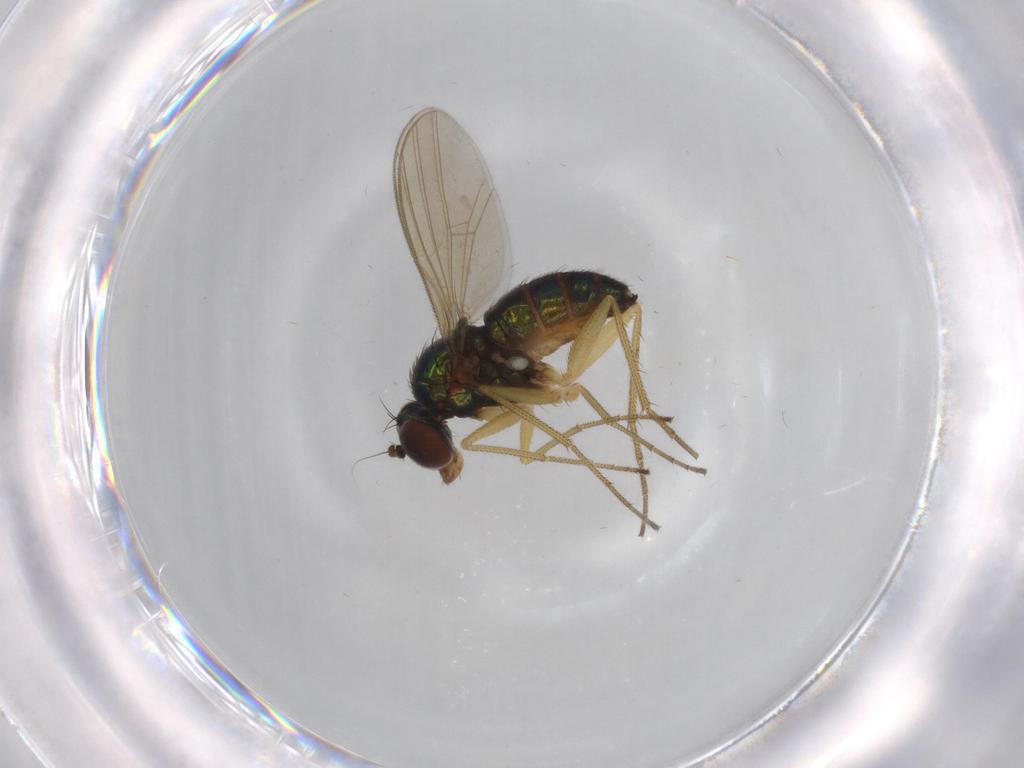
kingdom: Animalia
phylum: Arthropoda
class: Insecta
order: Diptera
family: Dolichopodidae
